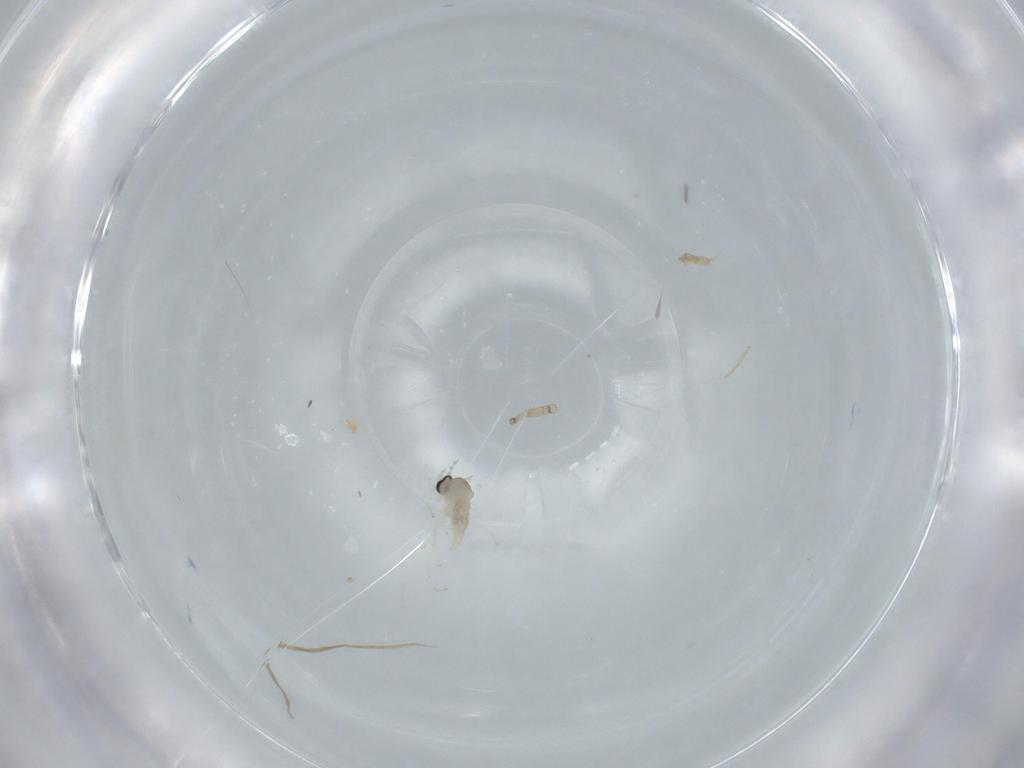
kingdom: Animalia
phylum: Arthropoda
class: Insecta
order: Diptera
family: Cecidomyiidae
